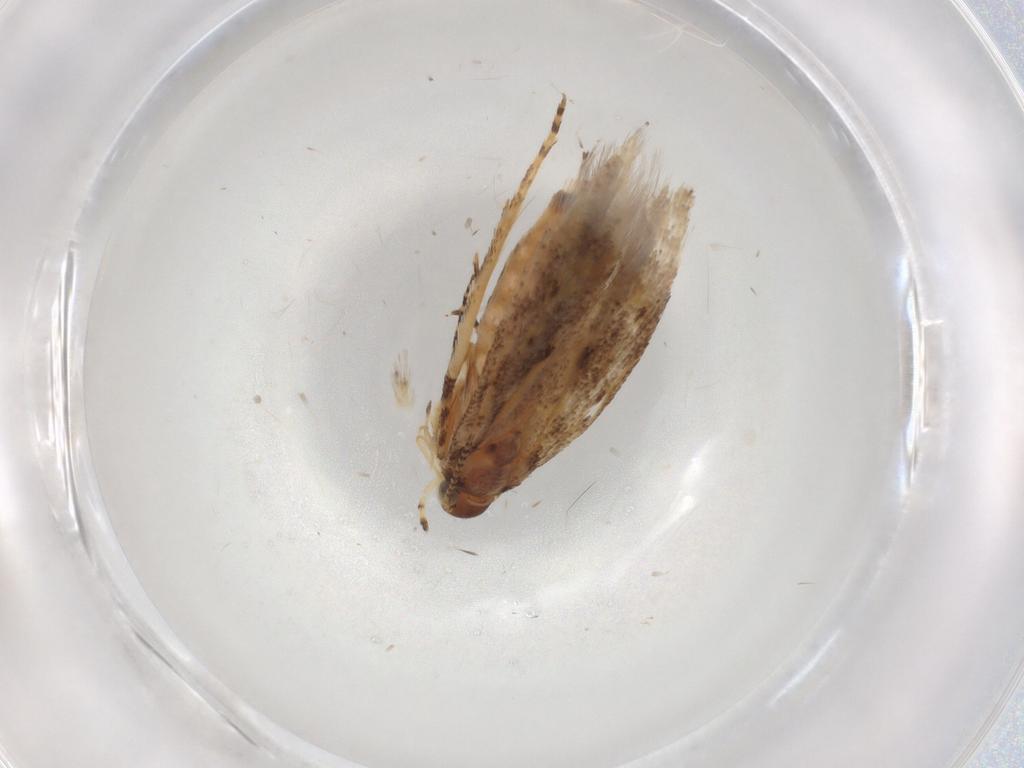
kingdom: Animalia
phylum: Arthropoda
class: Insecta
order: Lepidoptera
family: Gelechiidae
